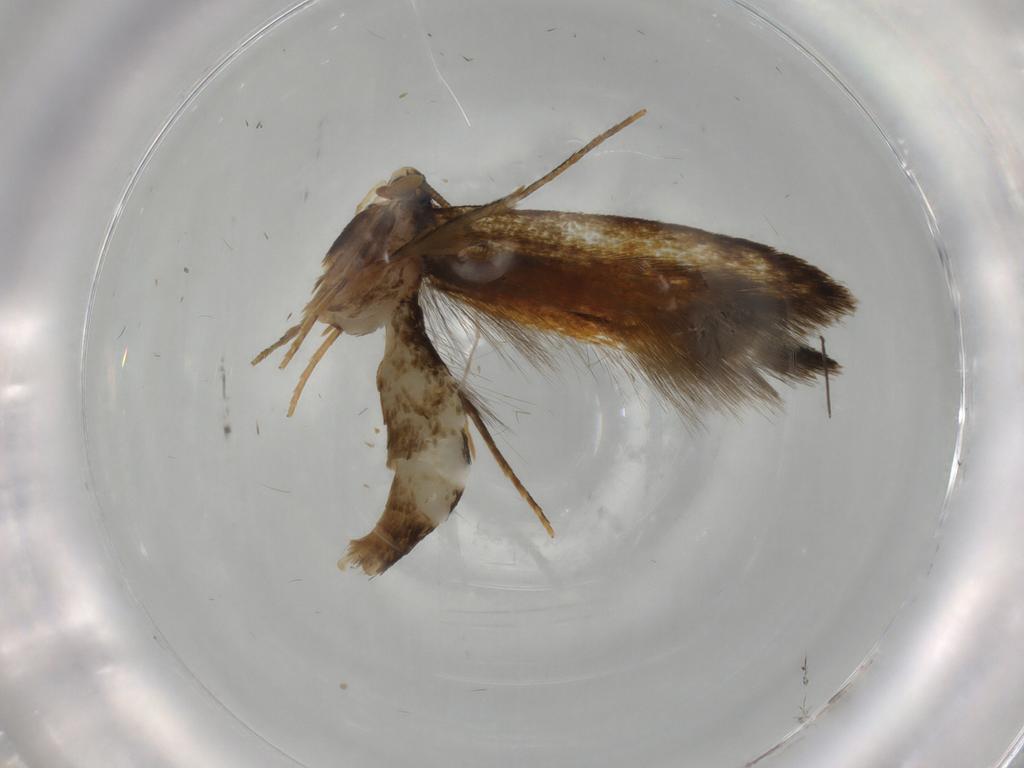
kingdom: Animalia
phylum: Arthropoda
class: Insecta
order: Lepidoptera
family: Tineidae
